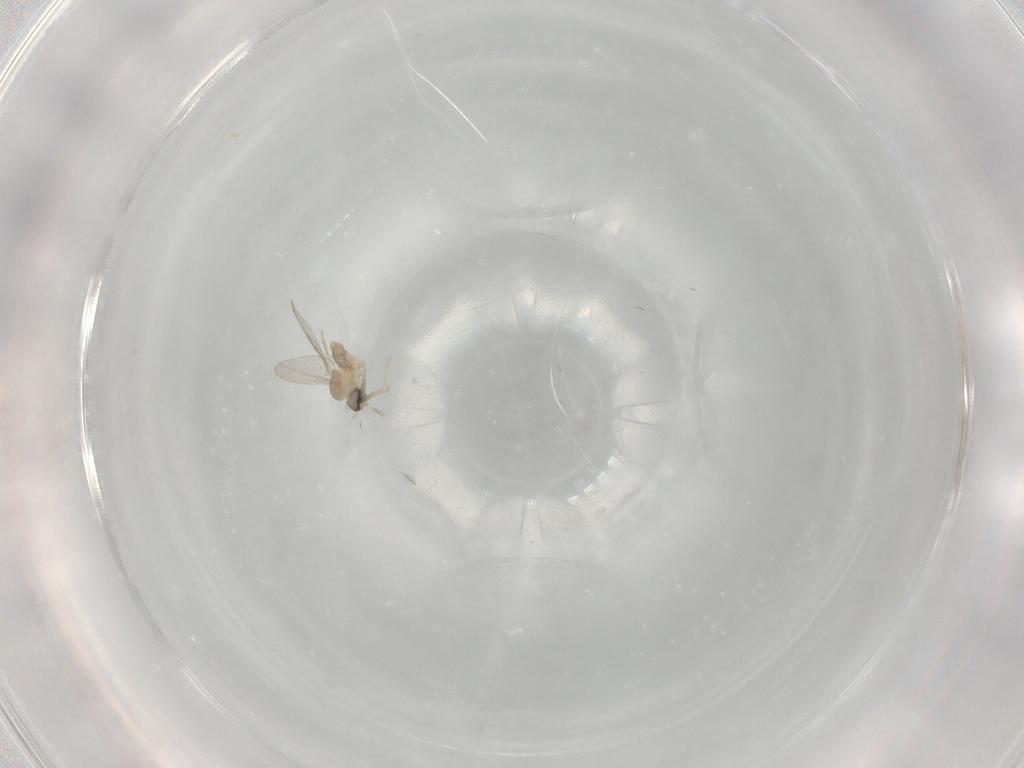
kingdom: Animalia
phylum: Arthropoda
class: Insecta
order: Diptera
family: Cecidomyiidae
